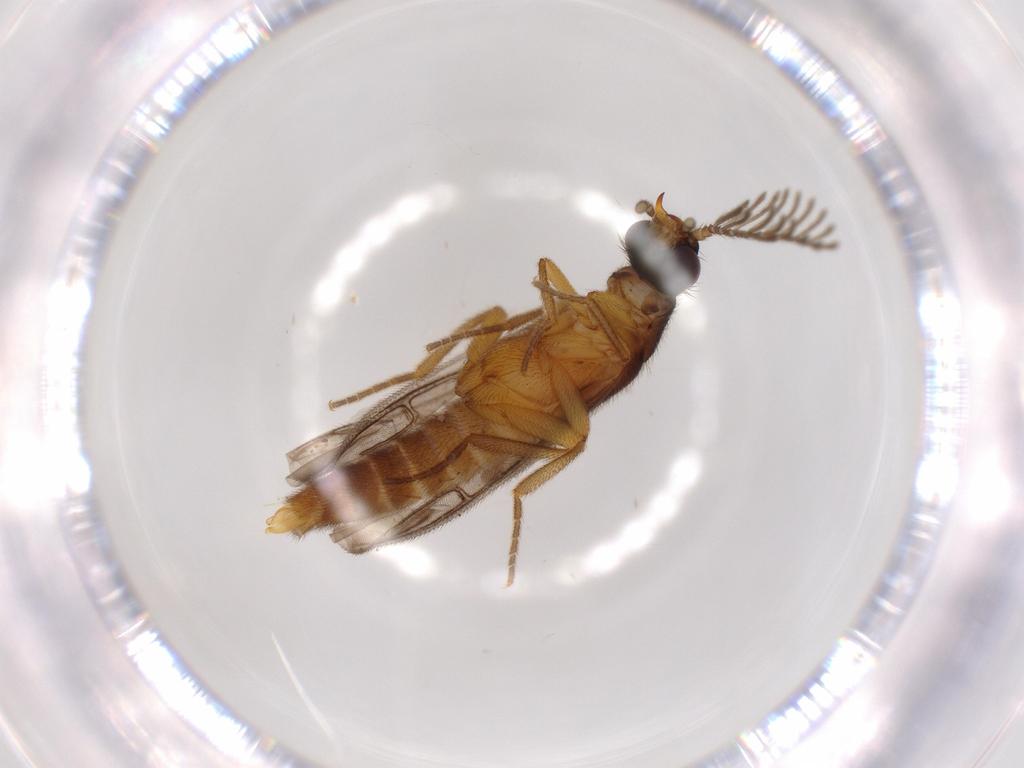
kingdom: Animalia
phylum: Arthropoda
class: Insecta
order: Coleoptera
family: Chrysomelidae
